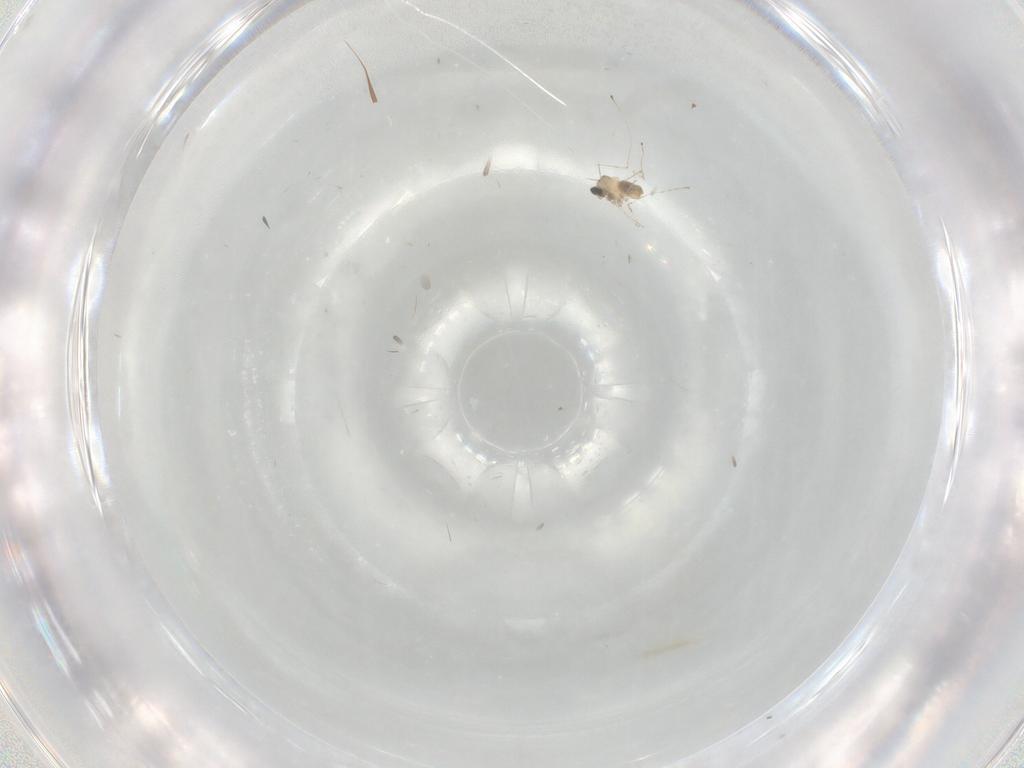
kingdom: Animalia
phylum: Arthropoda
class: Insecta
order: Diptera
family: Cecidomyiidae
